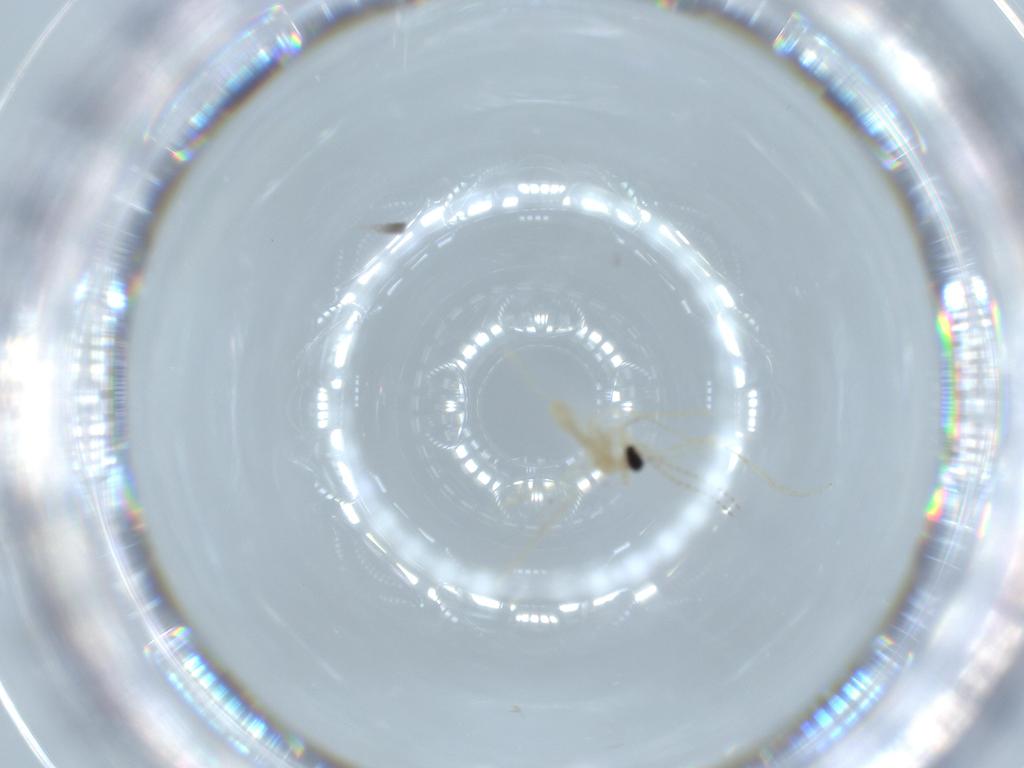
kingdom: Animalia
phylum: Arthropoda
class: Insecta
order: Diptera
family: Cecidomyiidae
